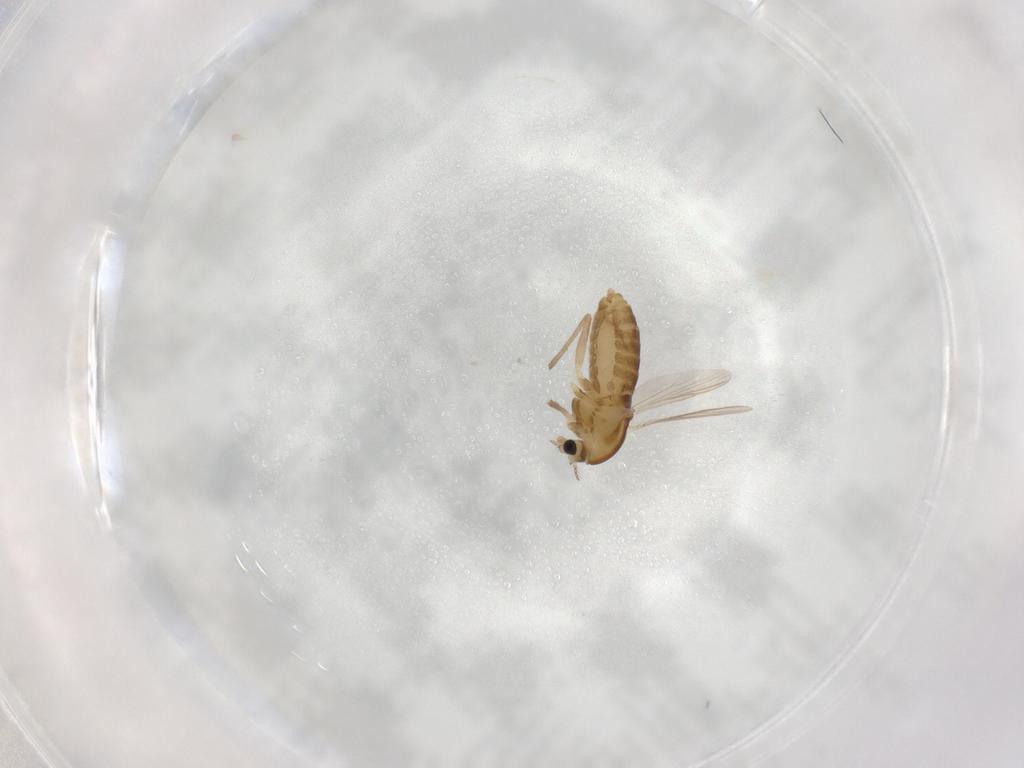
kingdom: Animalia
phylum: Arthropoda
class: Insecta
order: Diptera
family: Chironomidae
